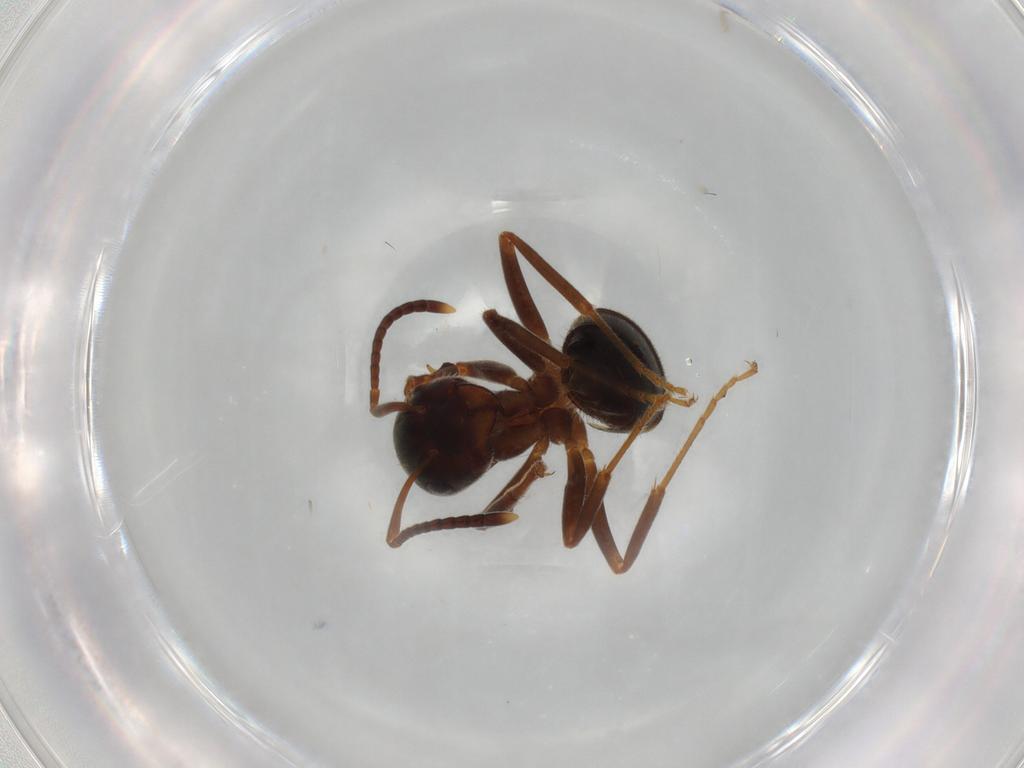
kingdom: Animalia
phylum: Arthropoda
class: Insecta
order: Hymenoptera
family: Formicidae
